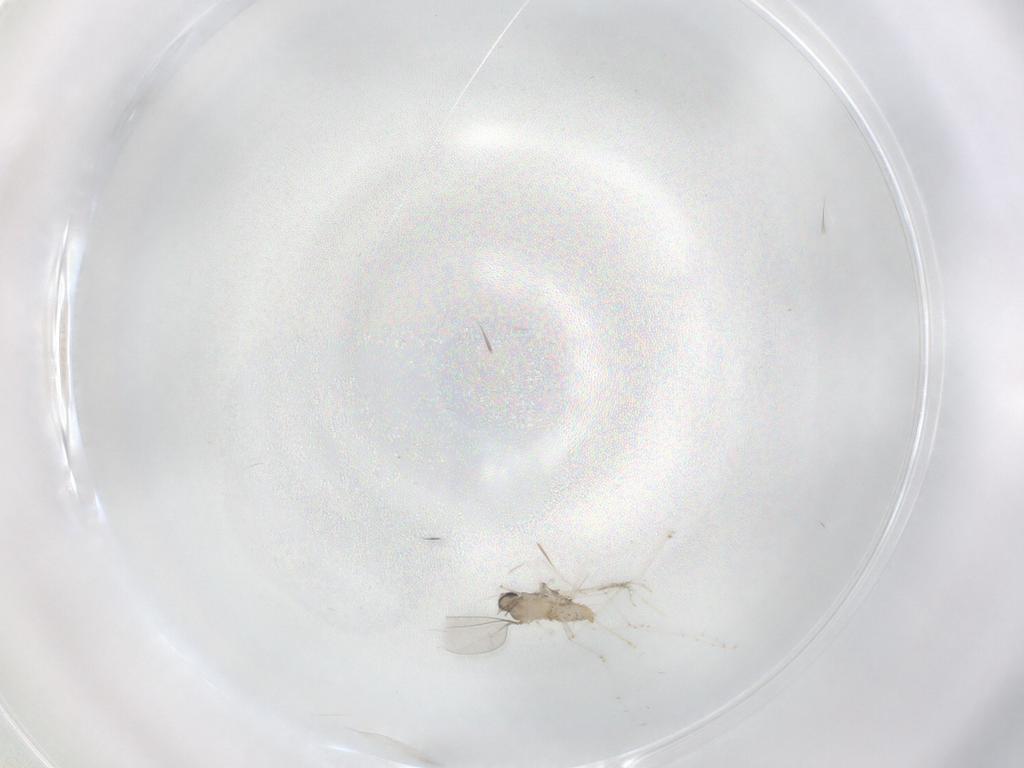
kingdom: Animalia
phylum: Arthropoda
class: Insecta
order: Diptera
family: Cecidomyiidae
